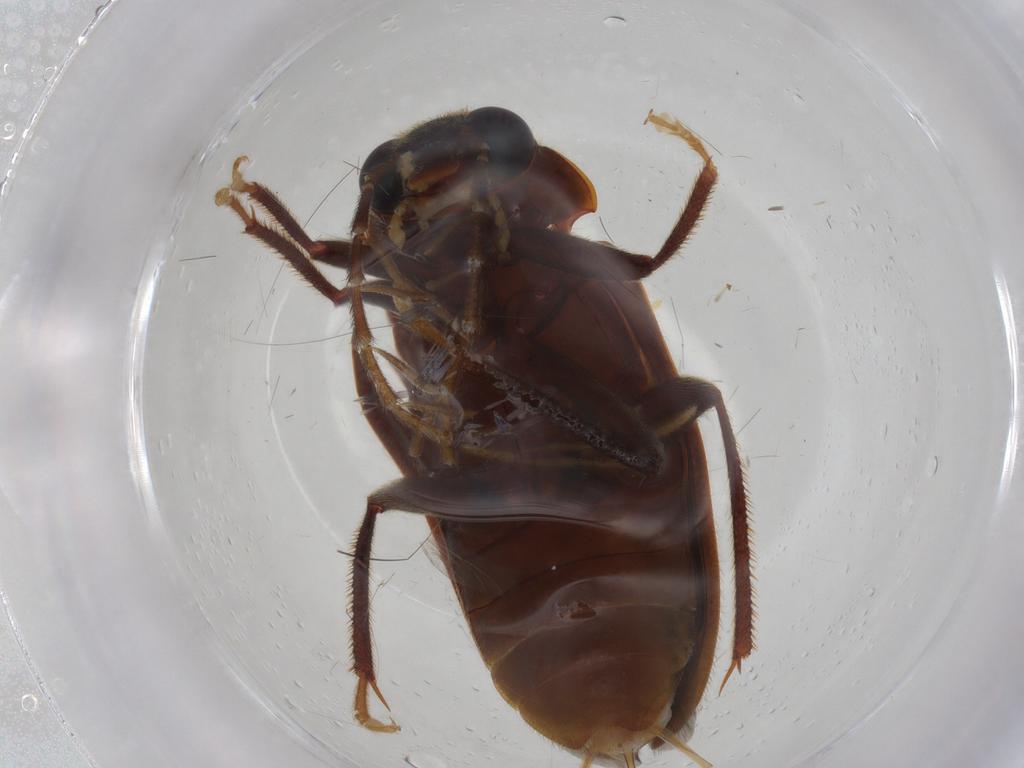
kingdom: Animalia
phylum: Arthropoda
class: Insecta
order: Coleoptera
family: Ptilodactylidae
